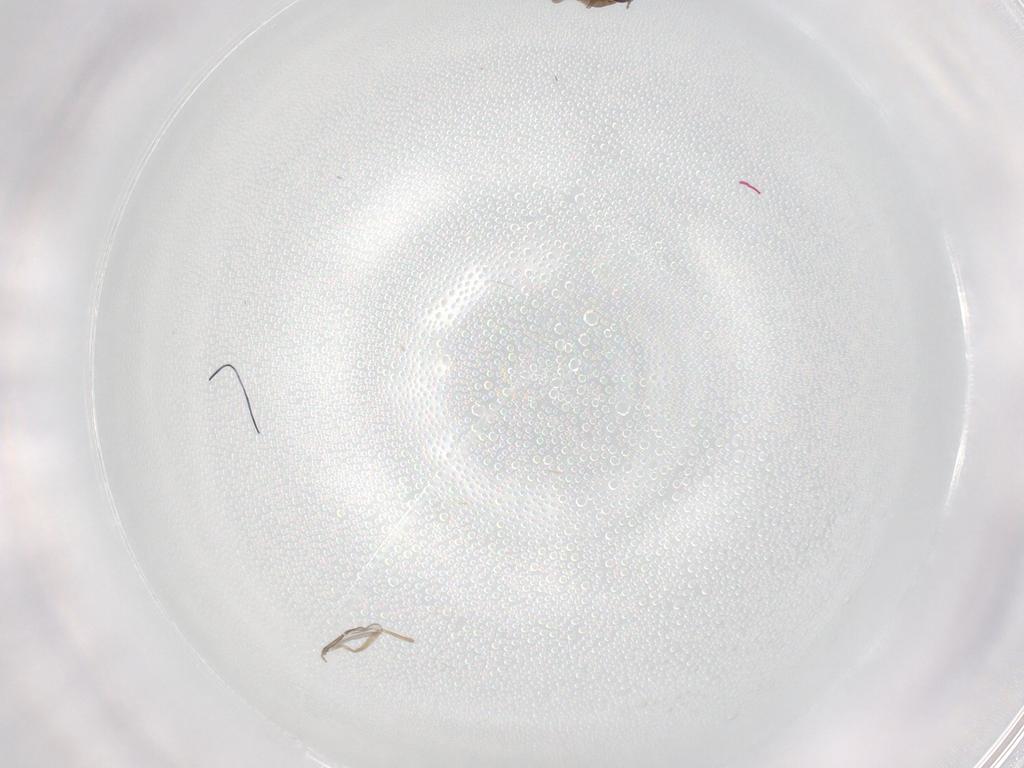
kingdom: Animalia
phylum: Arthropoda
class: Insecta
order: Diptera
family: Chironomidae
